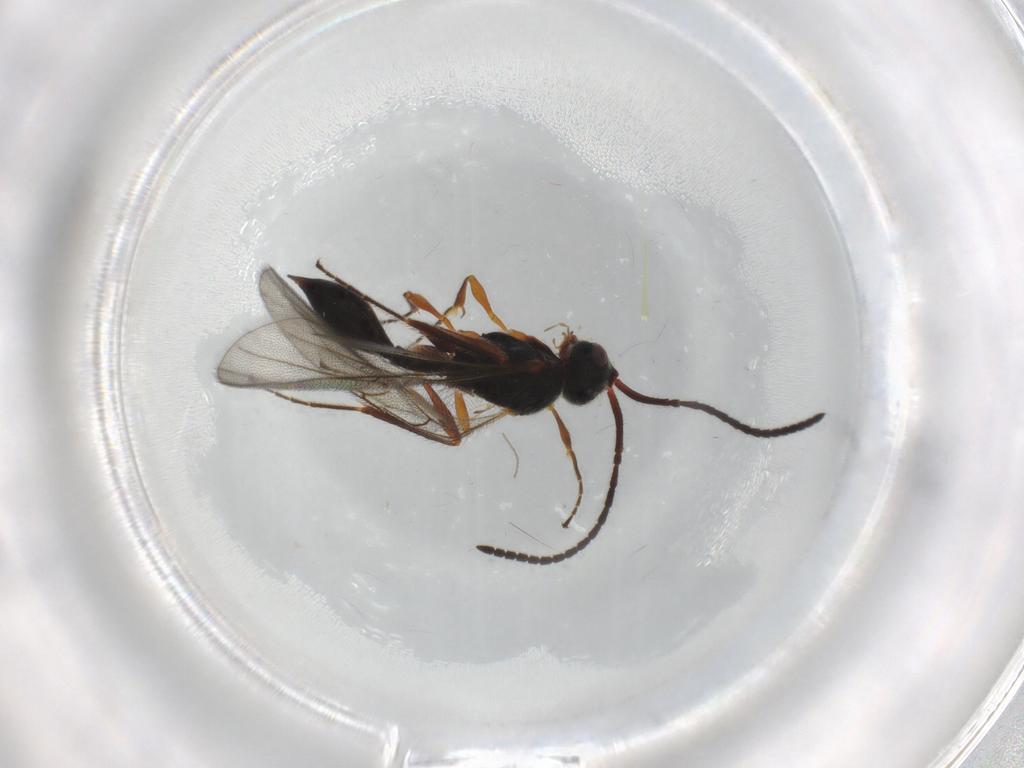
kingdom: Animalia
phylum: Arthropoda
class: Insecta
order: Hymenoptera
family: Diapriidae
